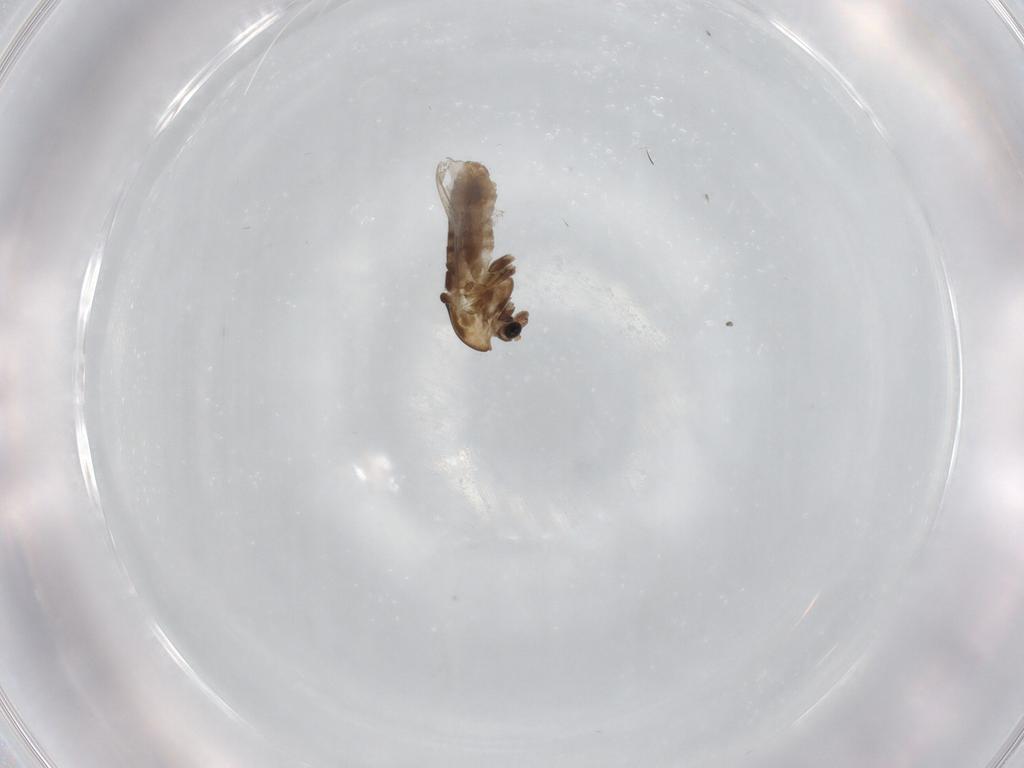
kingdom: Animalia
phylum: Arthropoda
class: Insecta
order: Diptera
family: Chironomidae
